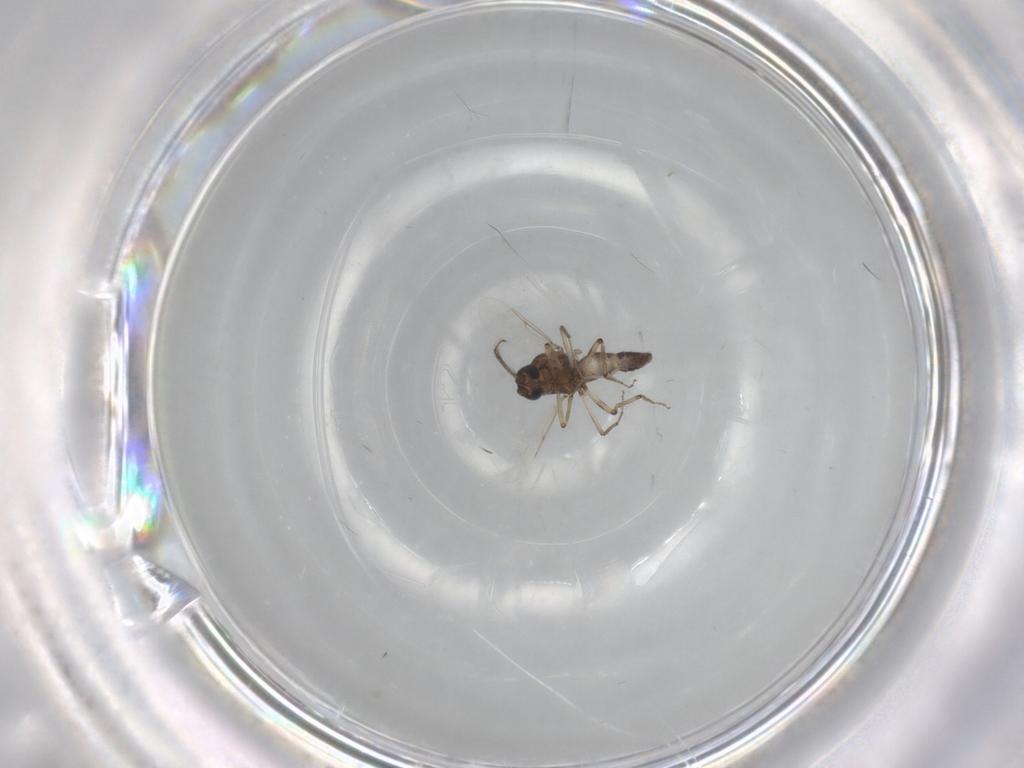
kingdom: Animalia
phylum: Arthropoda
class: Insecta
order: Diptera
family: Ceratopogonidae
